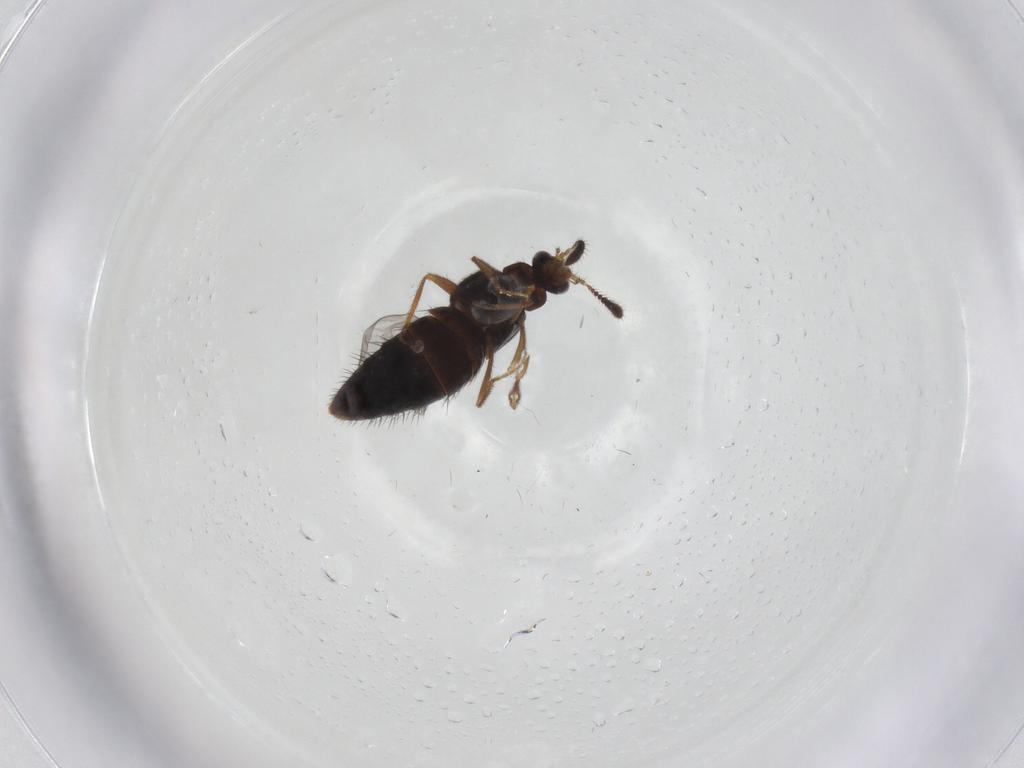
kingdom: Animalia
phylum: Arthropoda
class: Insecta
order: Coleoptera
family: Staphylinidae
